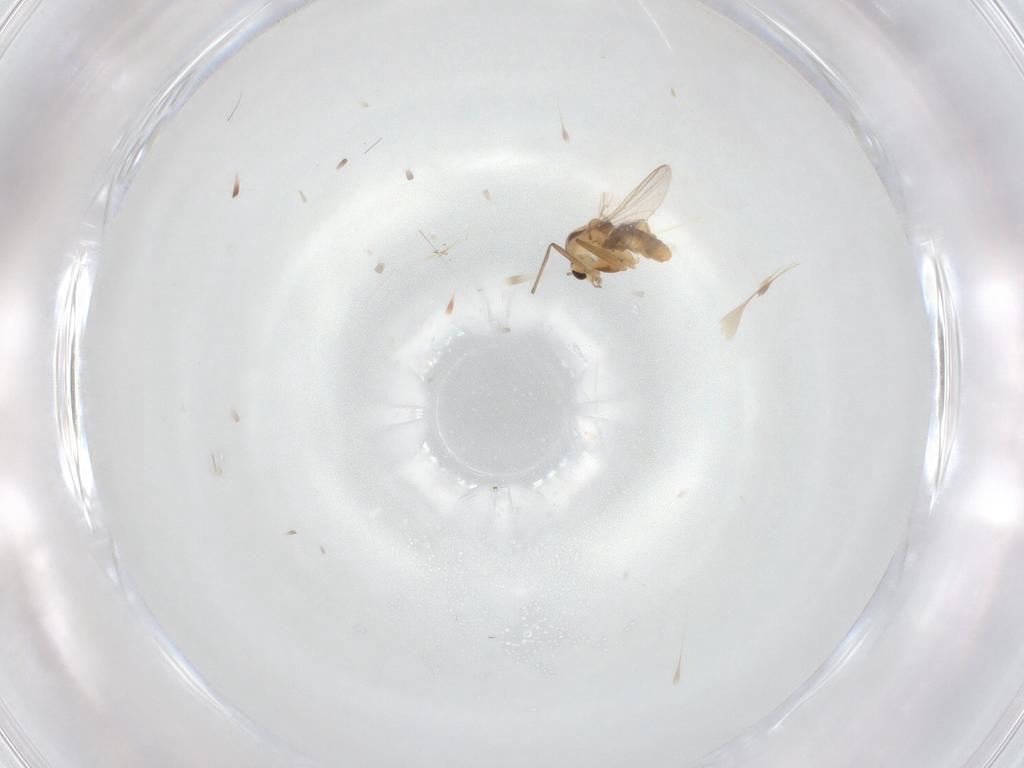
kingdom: Animalia
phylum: Arthropoda
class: Insecta
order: Diptera
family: Chironomidae
